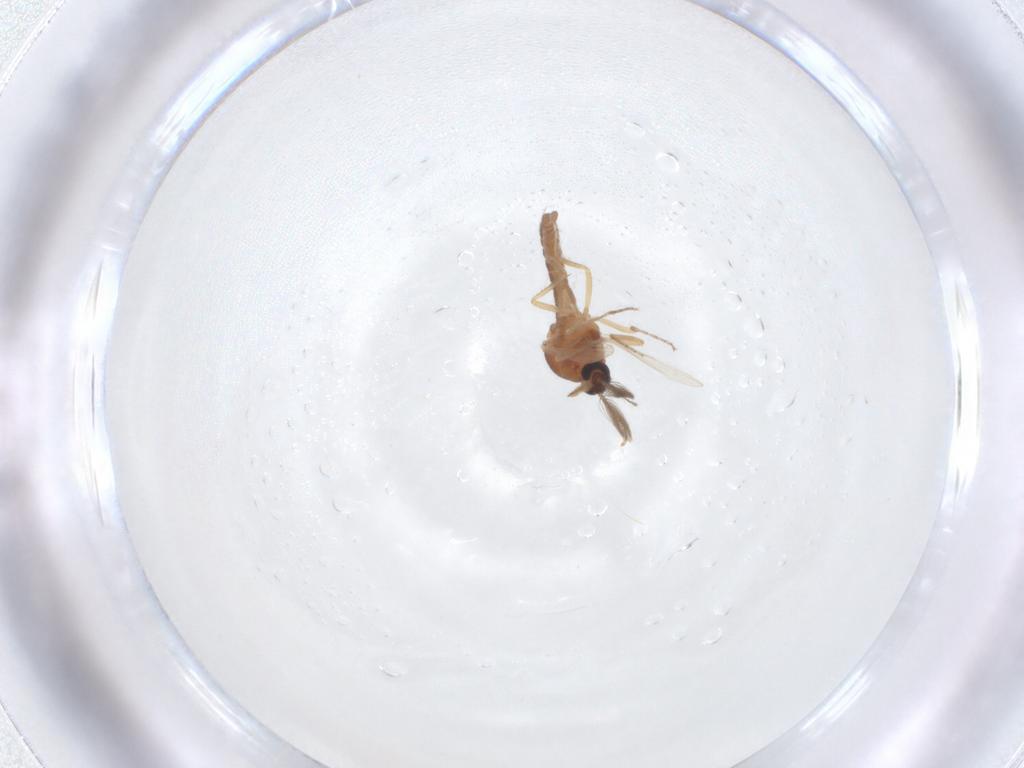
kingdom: Animalia
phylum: Arthropoda
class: Insecta
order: Diptera
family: Ceratopogonidae
